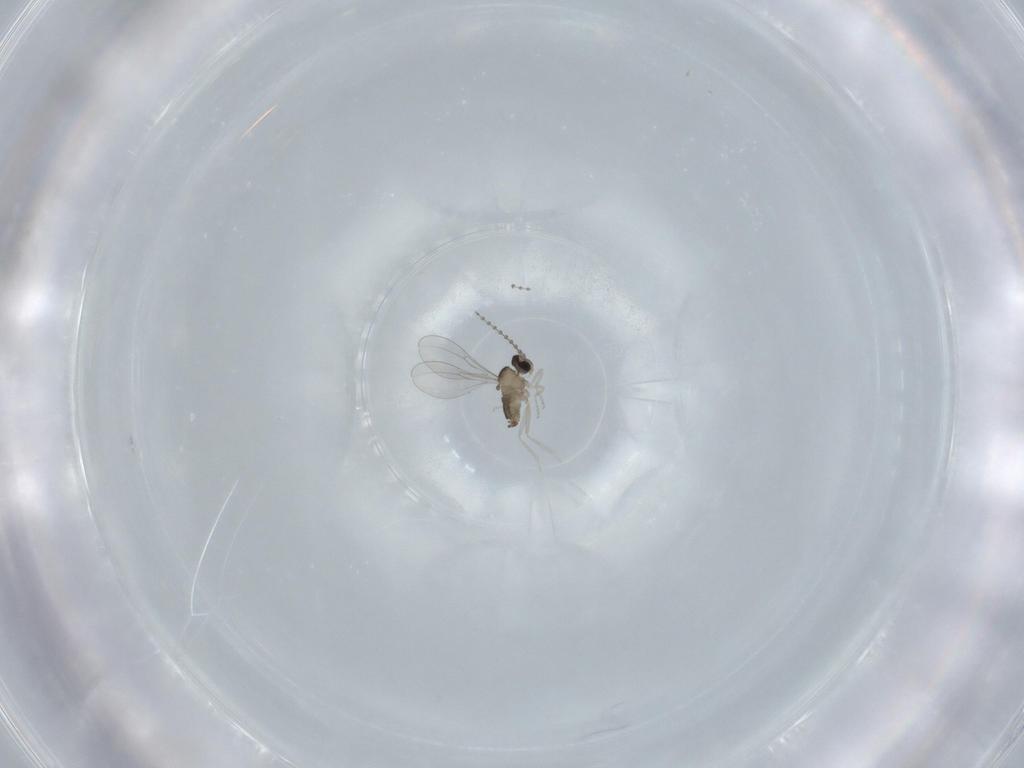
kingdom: Animalia
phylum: Arthropoda
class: Insecta
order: Diptera
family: Cecidomyiidae
